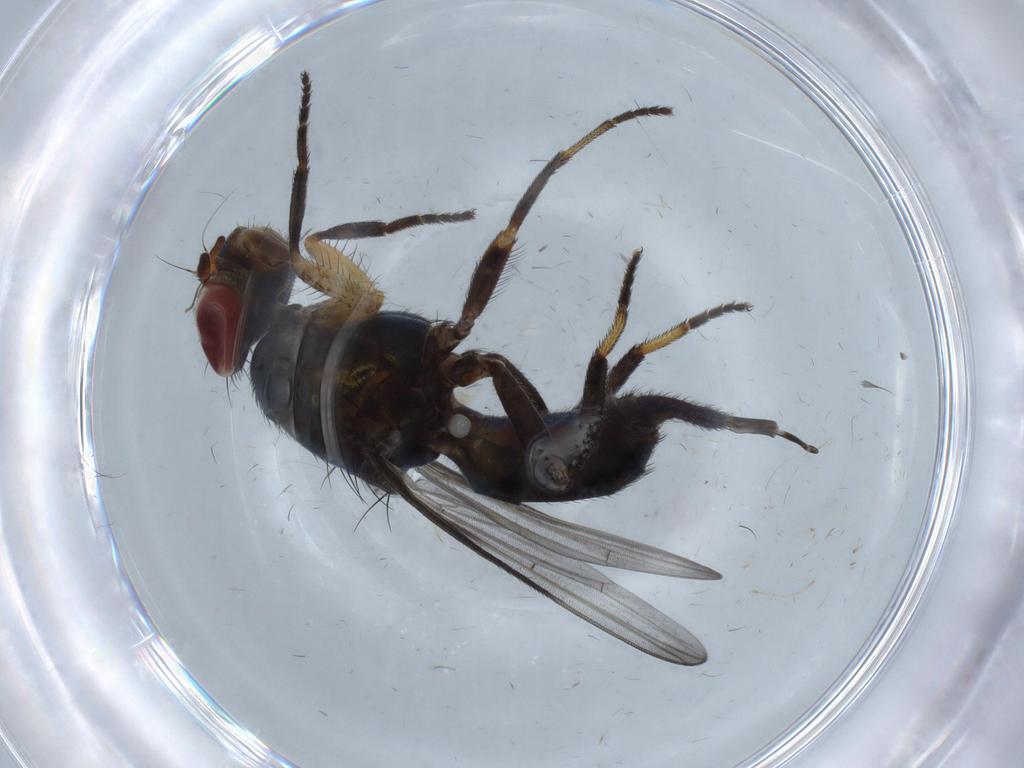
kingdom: Animalia
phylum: Arthropoda
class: Insecta
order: Diptera
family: Ulidiidae
